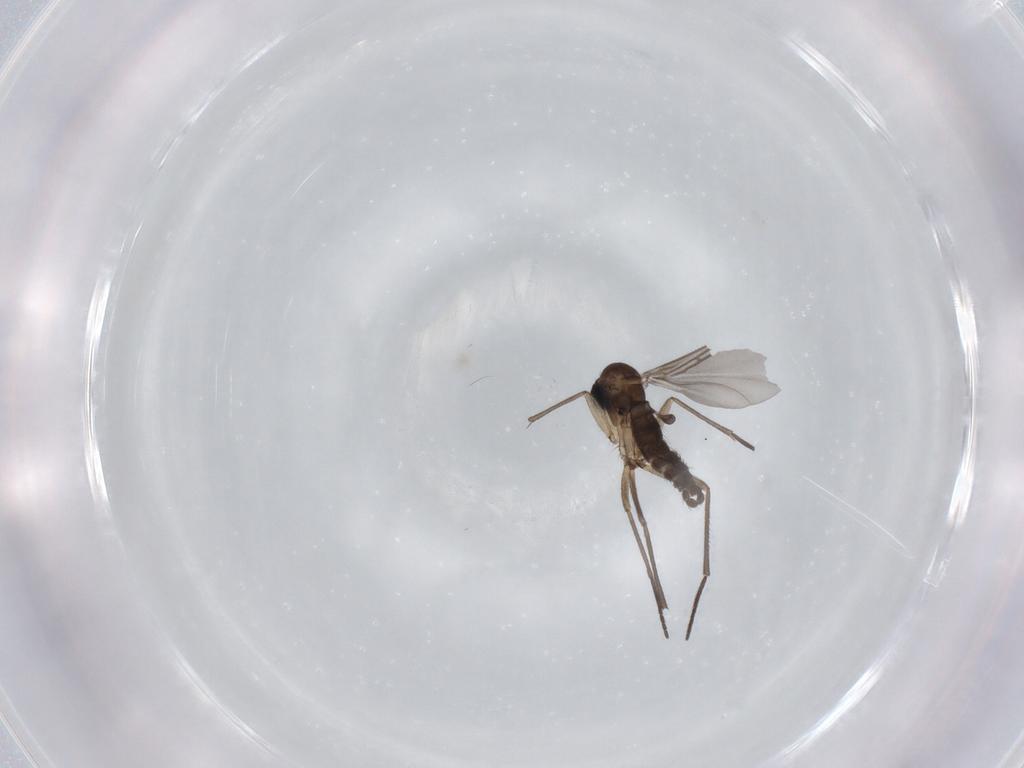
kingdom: Animalia
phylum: Arthropoda
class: Insecta
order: Diptera
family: Sciaridae
